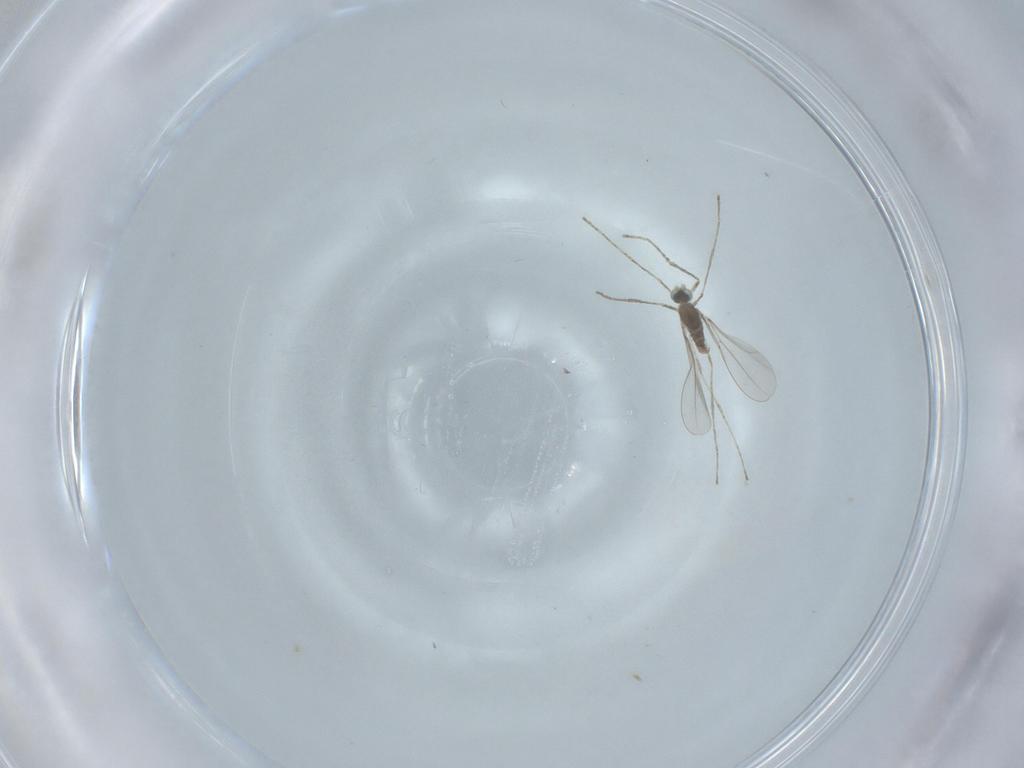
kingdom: Animalia
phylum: Arthropoda
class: Insecta
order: Diptera
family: Cecidomyiidae
